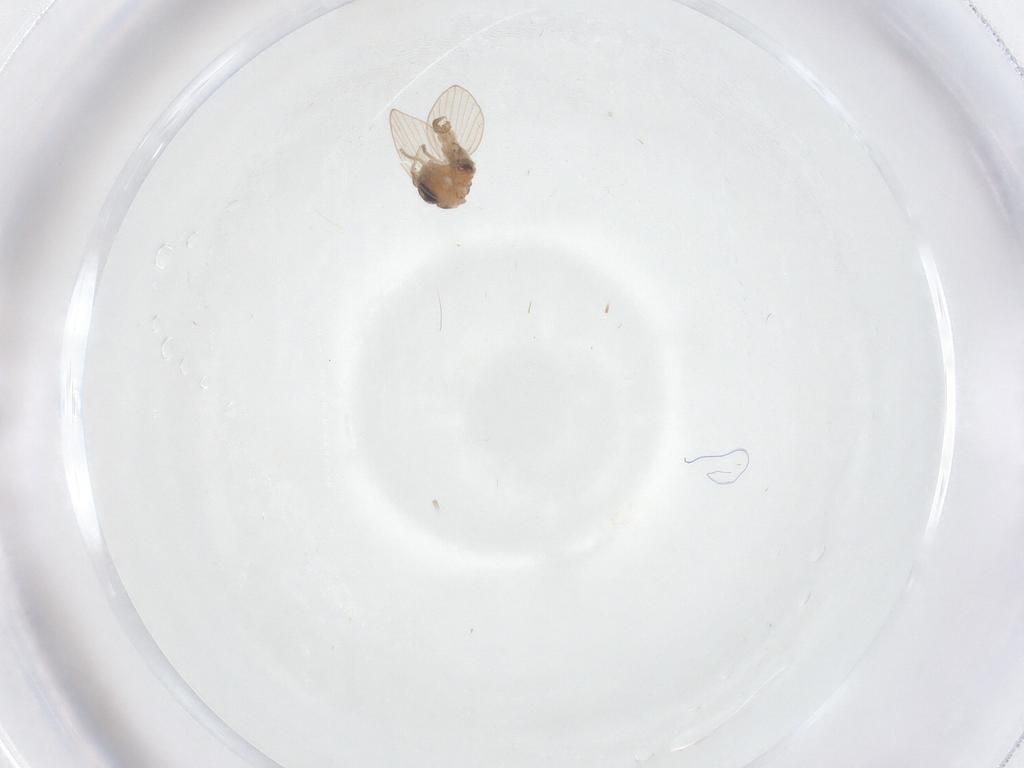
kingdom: Animalia
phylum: Arthropoda
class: Insecta
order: Diptera
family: Psychodidae
